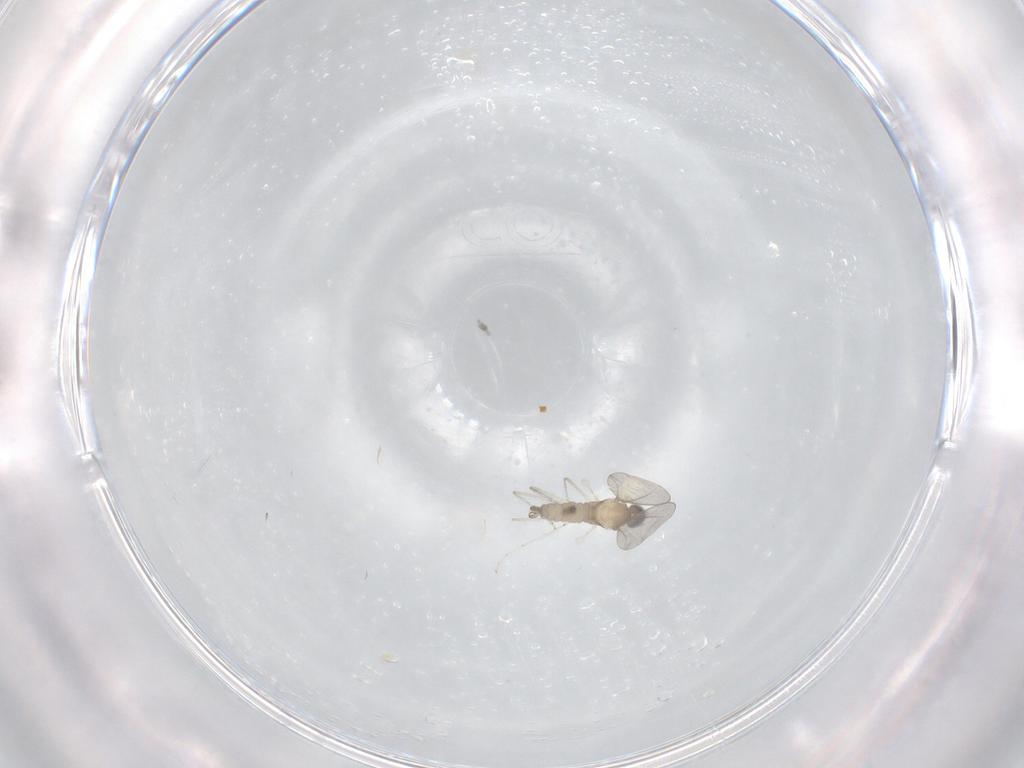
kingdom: Animalia
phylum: Arthropoda
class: Insecta
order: Diptera
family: Cecidomyiidae
